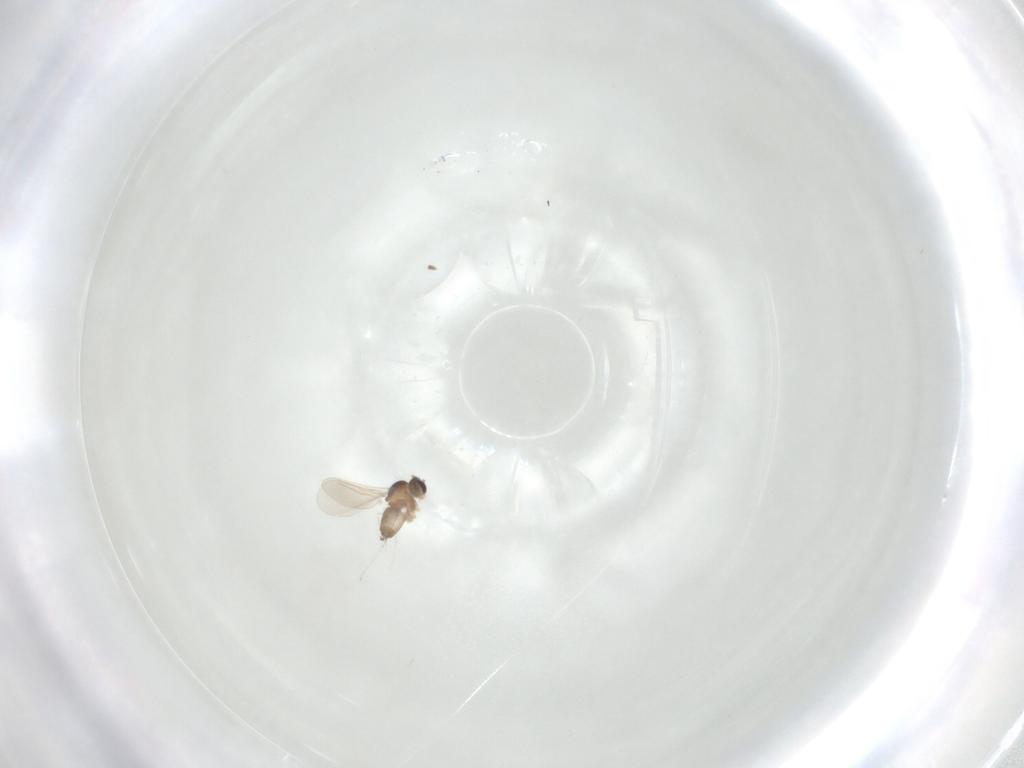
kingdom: Animalia
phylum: Arthropoda
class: Insecta
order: Diptera
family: Cecidomyiidae
